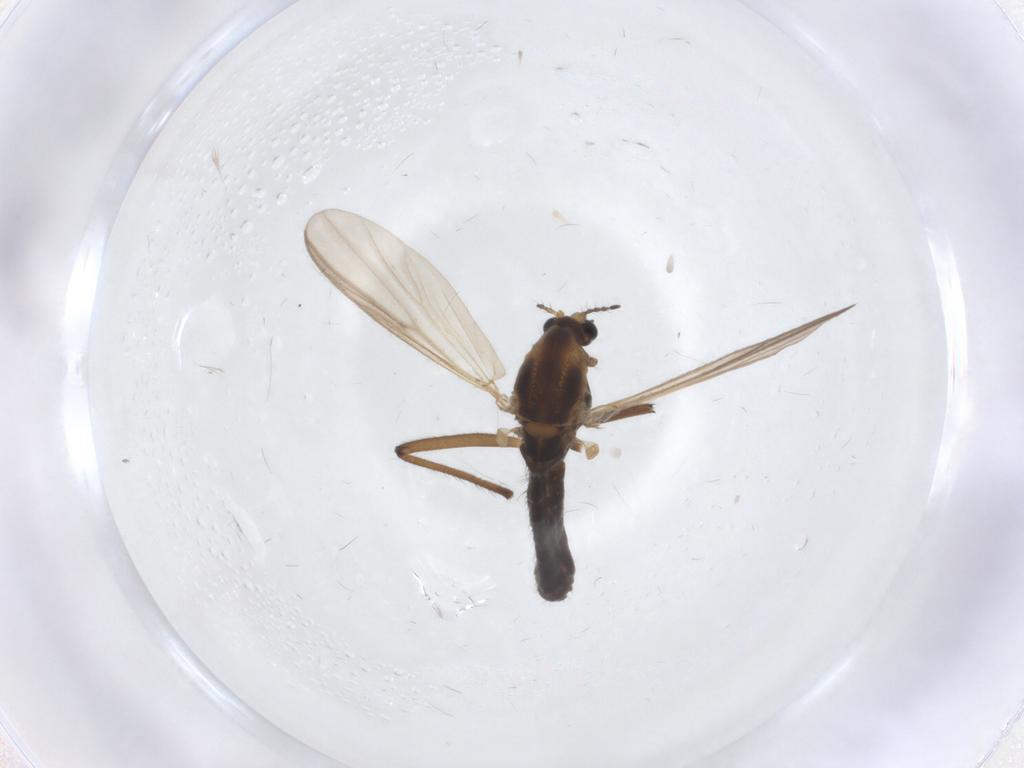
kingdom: Animalia
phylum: Arthropoda
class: Insecta
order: Diptera
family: Chironomidae
